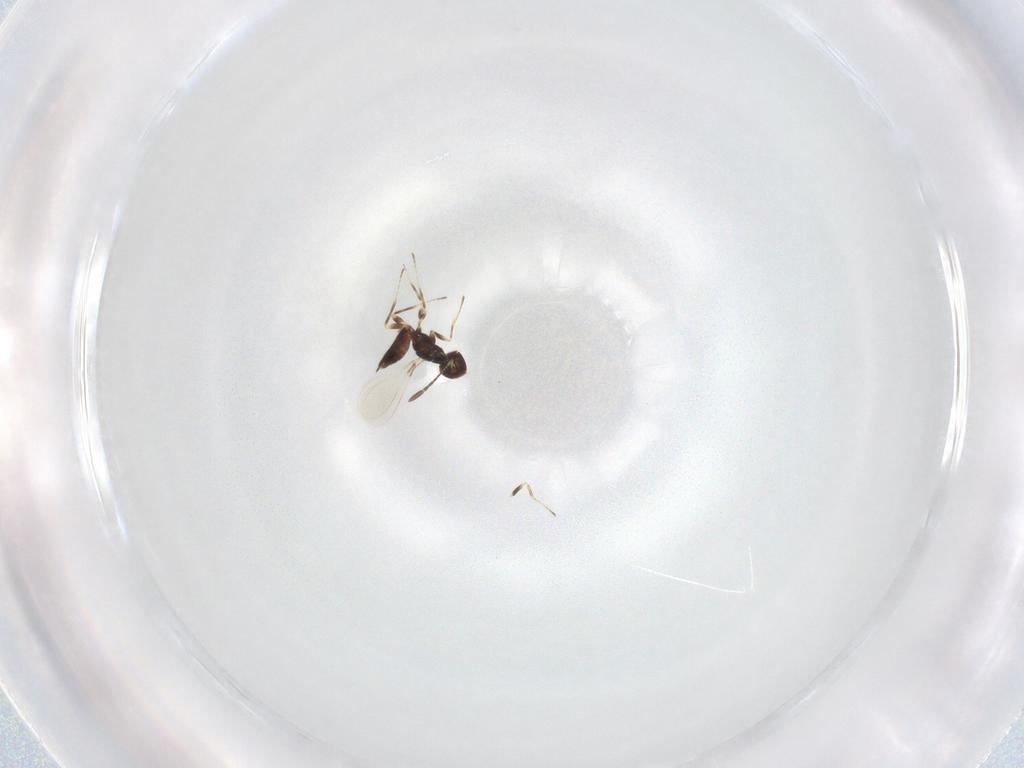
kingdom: Animalia
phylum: Arthropoda
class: Insecta
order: Hymenoptera
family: Mymaridae
